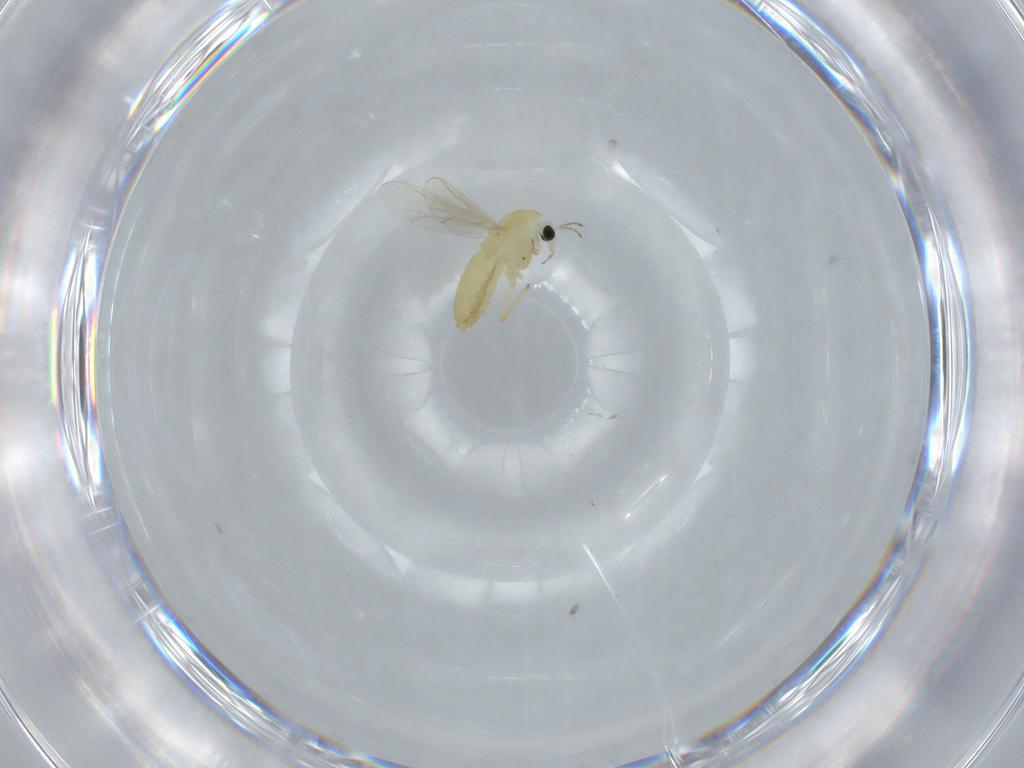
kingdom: Animalia
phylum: Arthropoda
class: Insecta
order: Diptera
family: Chironomidae
